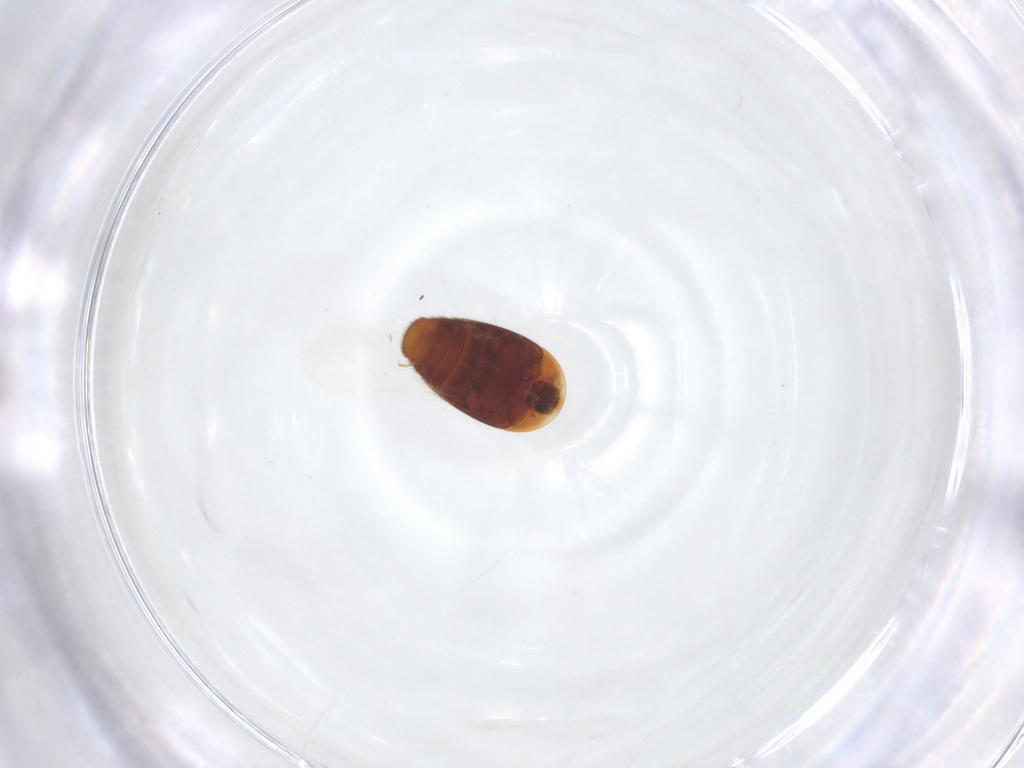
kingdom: Animalia
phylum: Arthropoda
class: Insecta
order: Coleoptera
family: Corylophidae
